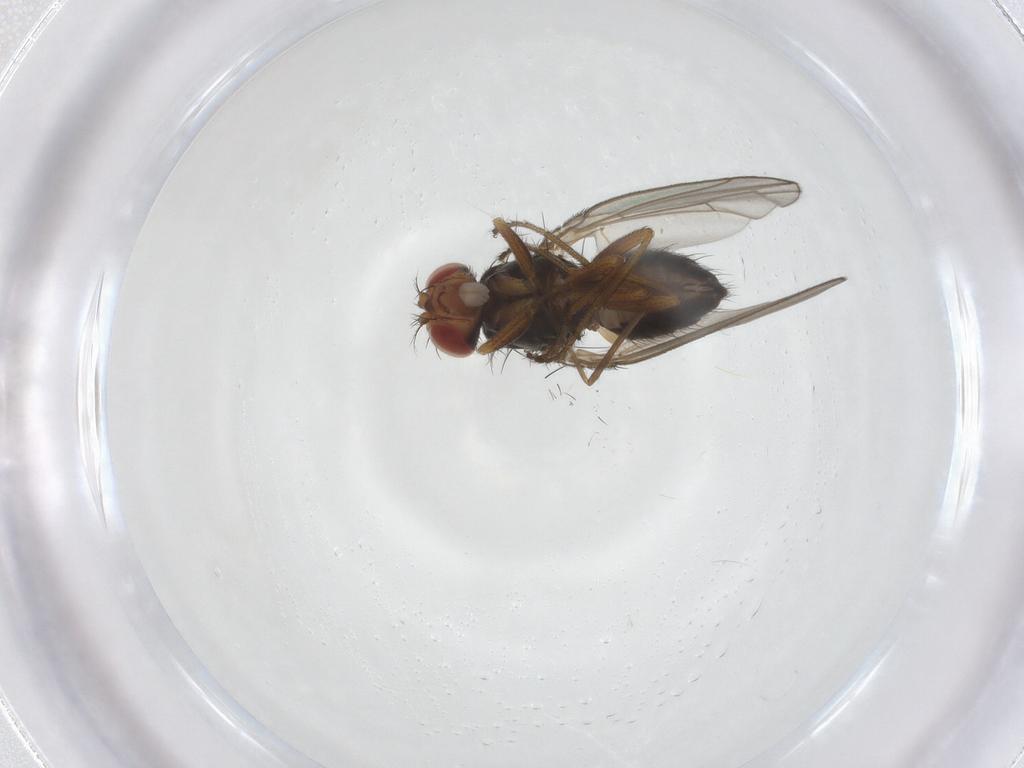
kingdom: Animalia
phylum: Arthropoda
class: Insecta
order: Diptera
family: Drosophilidae
